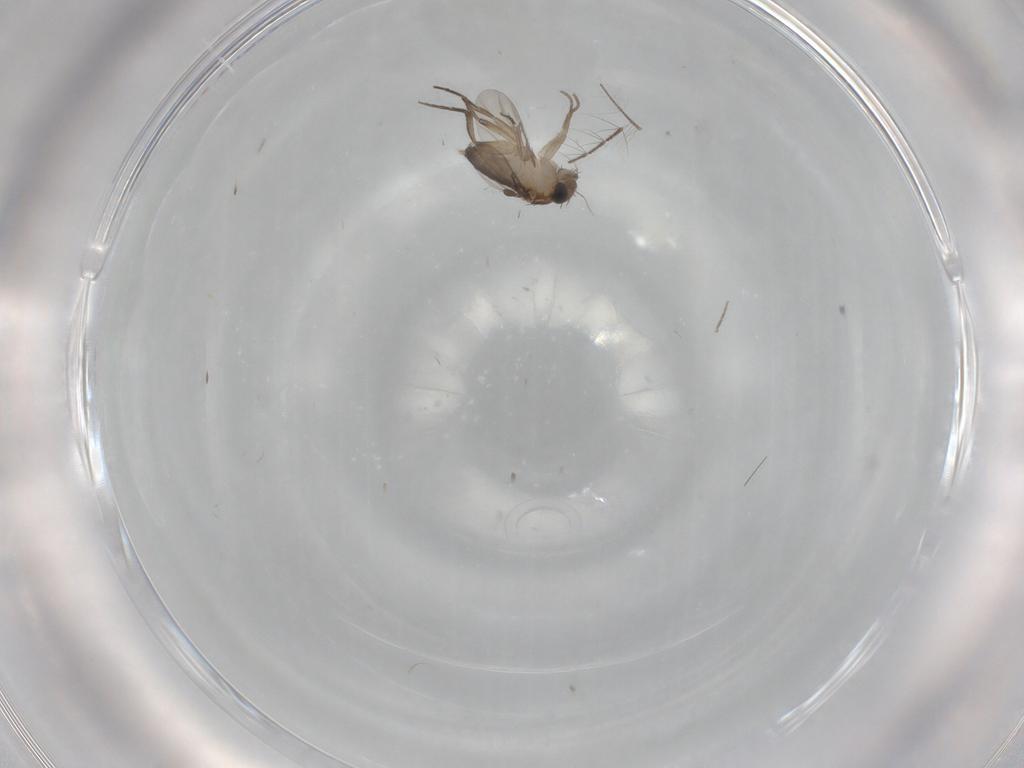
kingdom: Animalia
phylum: Arthropoda
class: Insecta
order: Diptera
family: Phoridae
